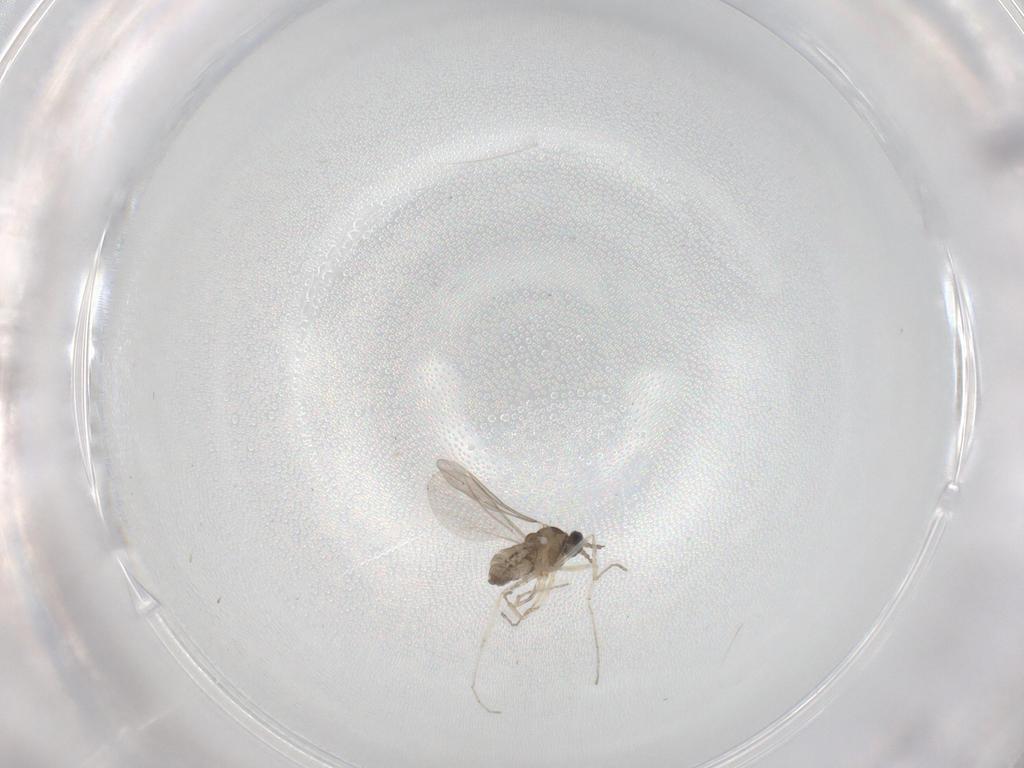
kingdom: Animalia
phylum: Arthropoda
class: Insecta
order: Diptera
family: Cecidomyiidae
